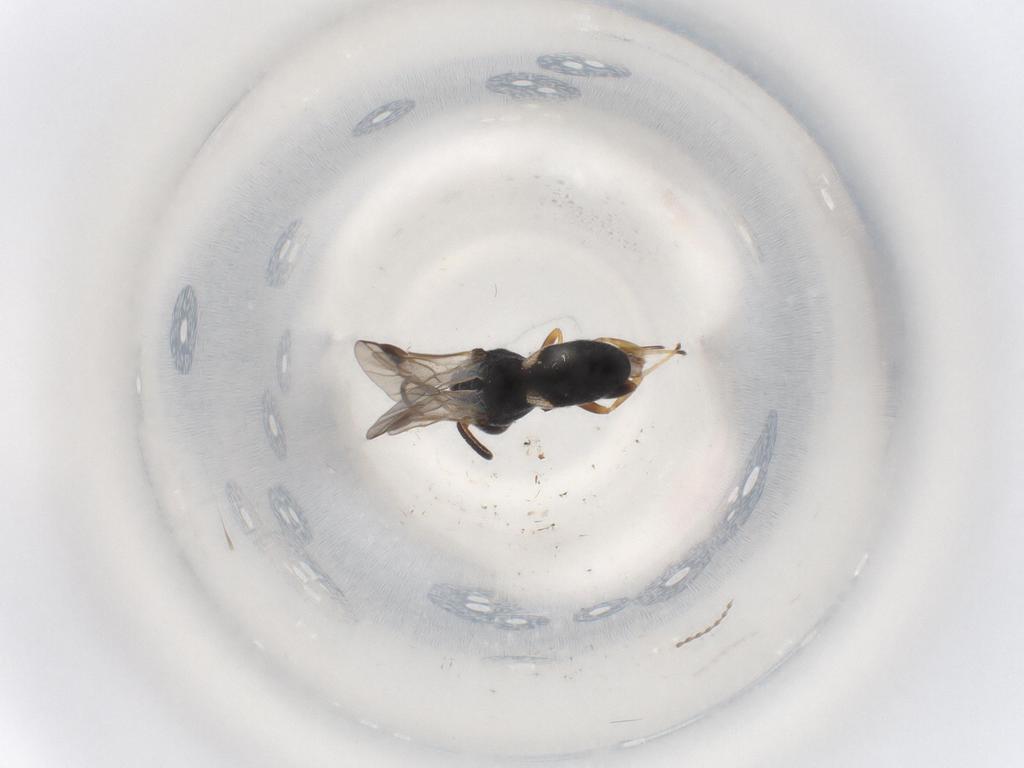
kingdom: Animalia
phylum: Arthropoda
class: Insecta
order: Hymenoptera
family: Braconidae
